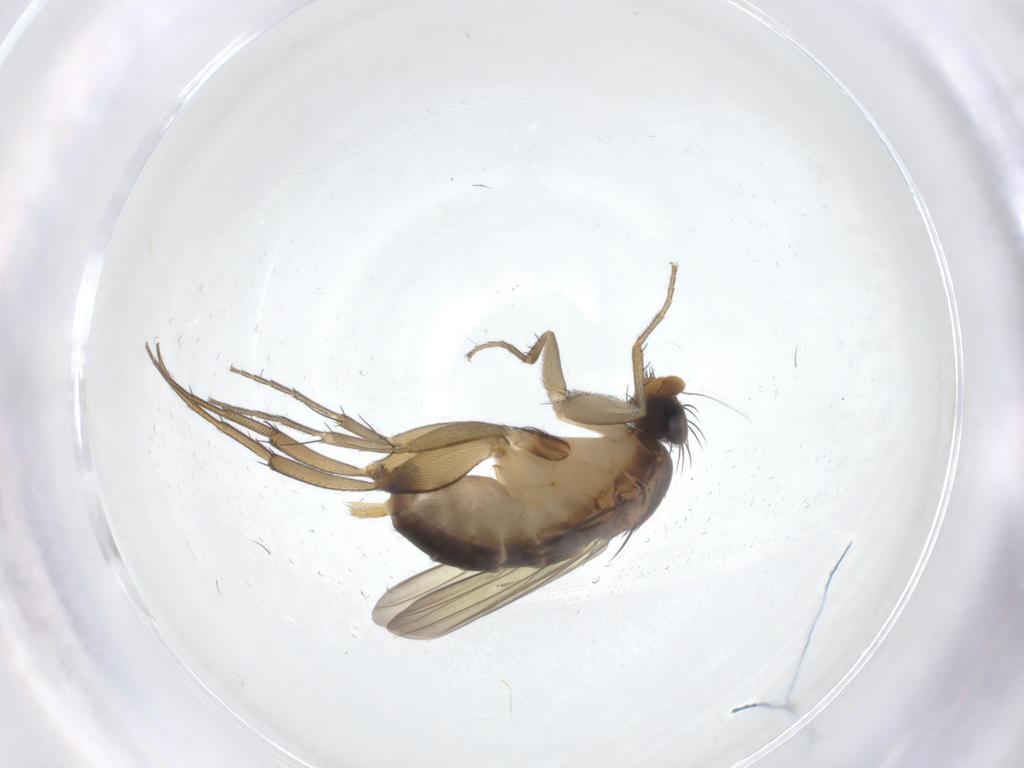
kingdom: Animalia
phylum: Arthropoda
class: Insecta
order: Diptera
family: Phoridae
